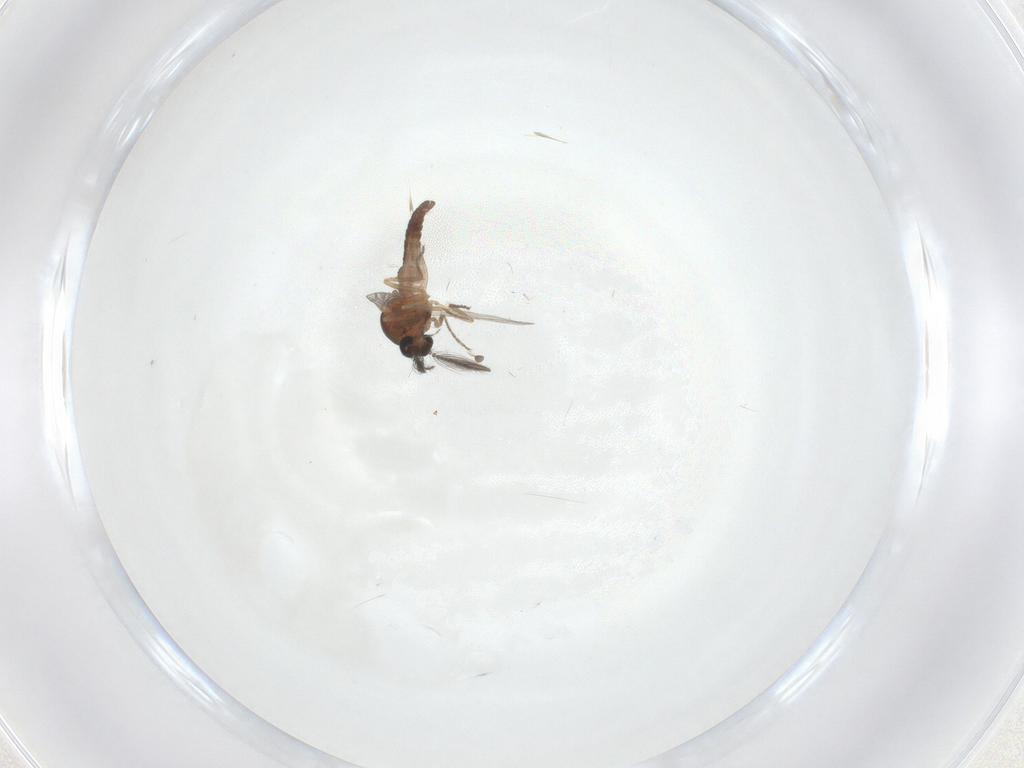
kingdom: Animalia
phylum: Arthropoda
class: Insecta
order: Diptera
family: Ceratopogonidae
